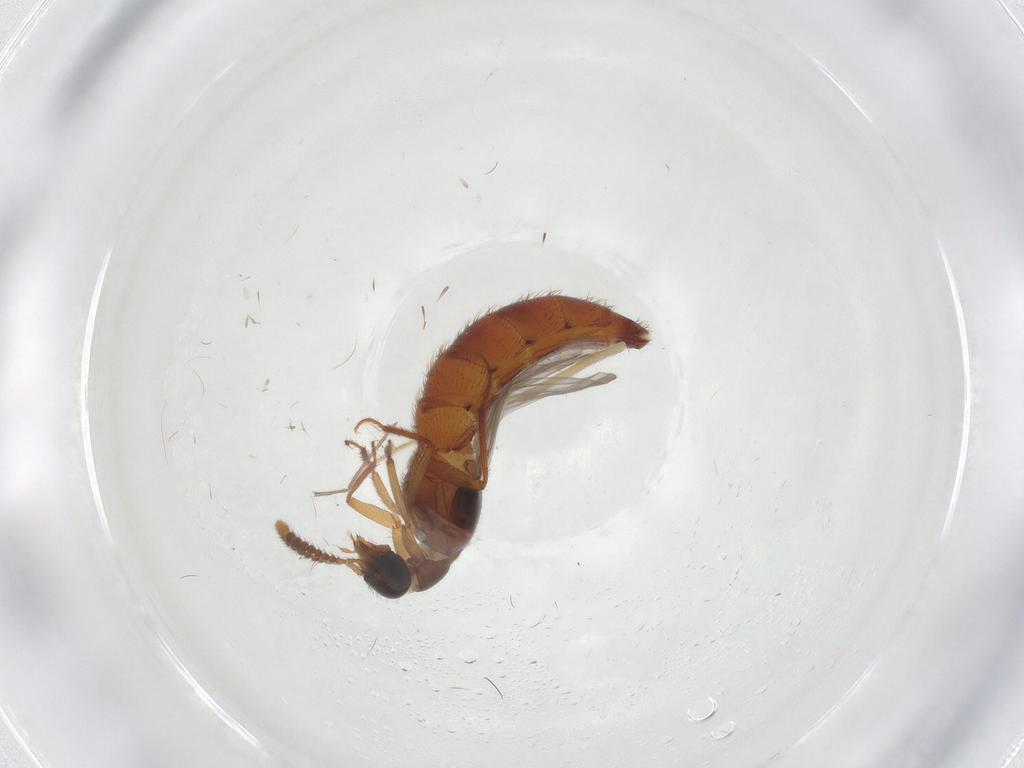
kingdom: Animalia
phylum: Arthropoda
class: Insecta
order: Coleoptera
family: Staphylinidae
